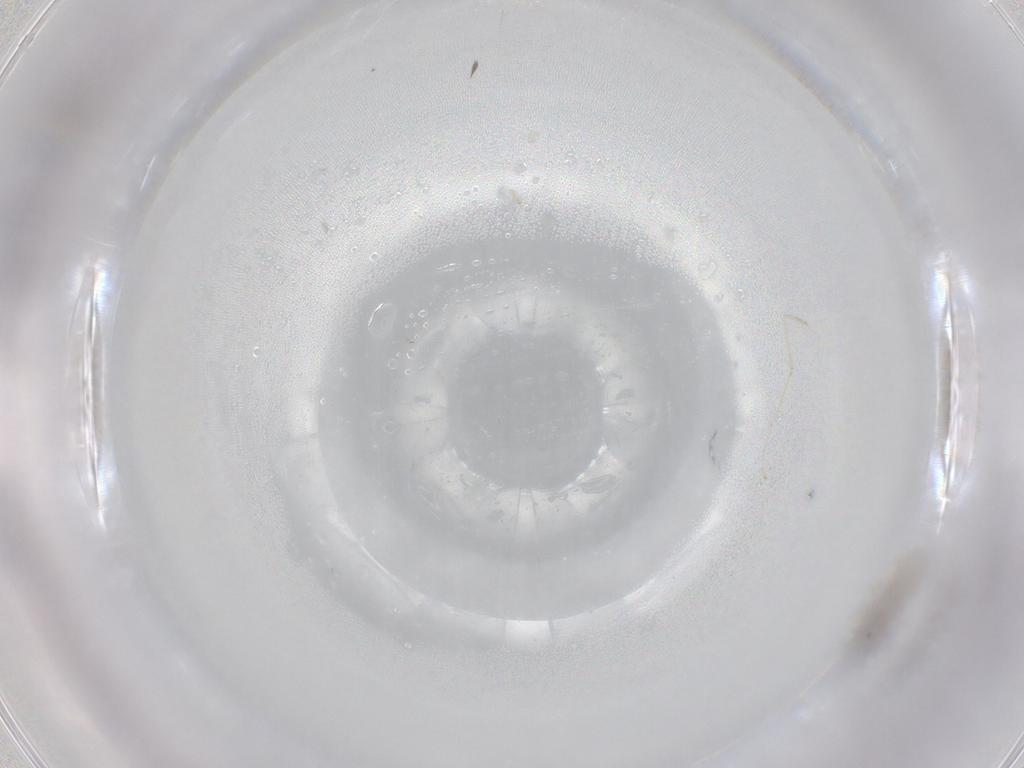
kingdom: Animalia
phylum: Arthropoda
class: Insecta
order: Diptera
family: Cecidomyiidae
